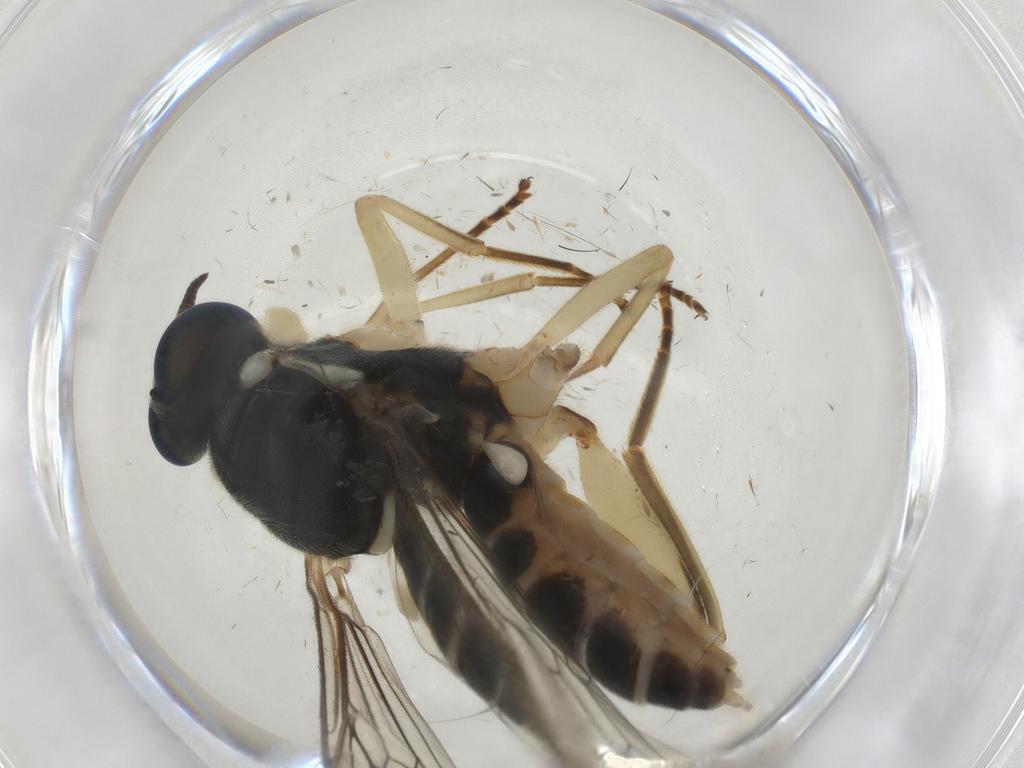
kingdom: Animalia
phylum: Arthropoda
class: Insecta
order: Diptera
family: Xylomyidae
